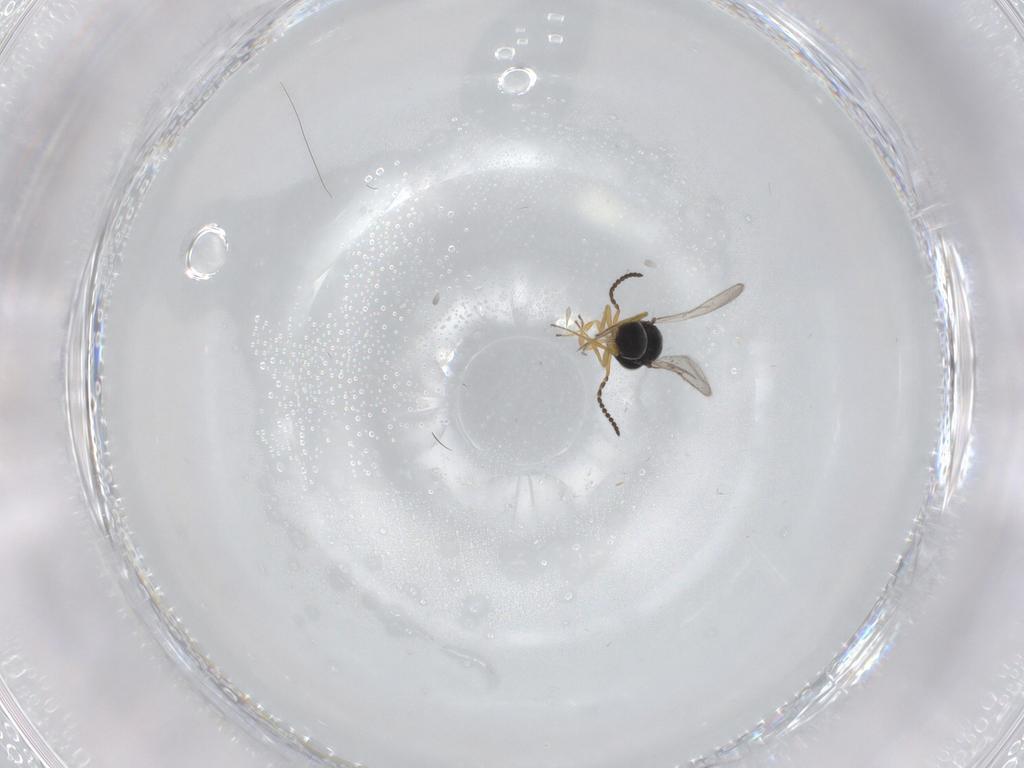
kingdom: Animalia
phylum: Arthropoda
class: Insecta
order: Hymenoptera
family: Scelionidae
